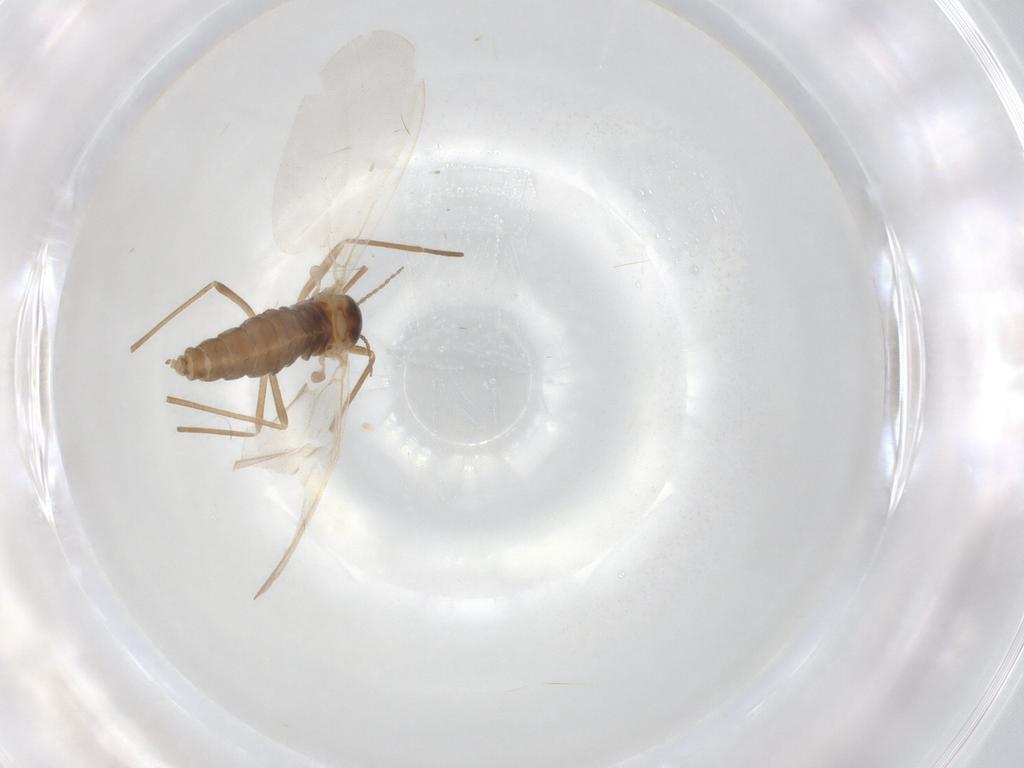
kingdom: Animalia
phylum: Arthropoda
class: Insecta
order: Diptera
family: Cecidomyiidae
